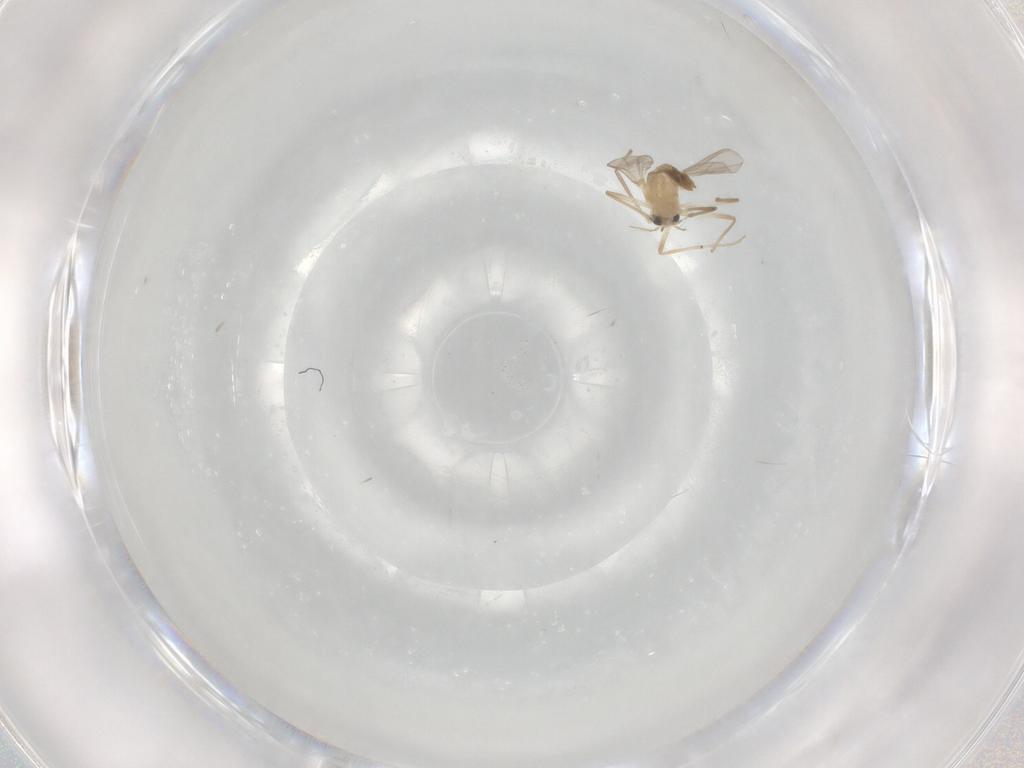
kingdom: Animalia
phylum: Arthropoda
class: Insecta
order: Diptera
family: Chironomidae
